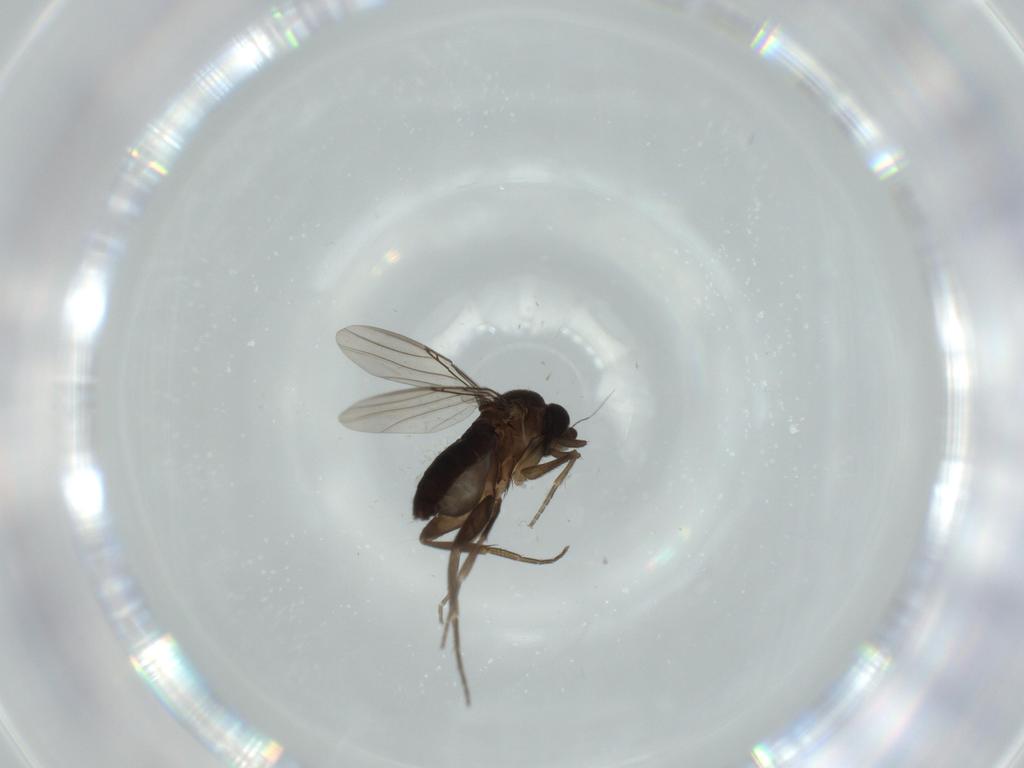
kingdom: Animalia
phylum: Arthropoda
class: Insecta
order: Diptera
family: Phoridae
